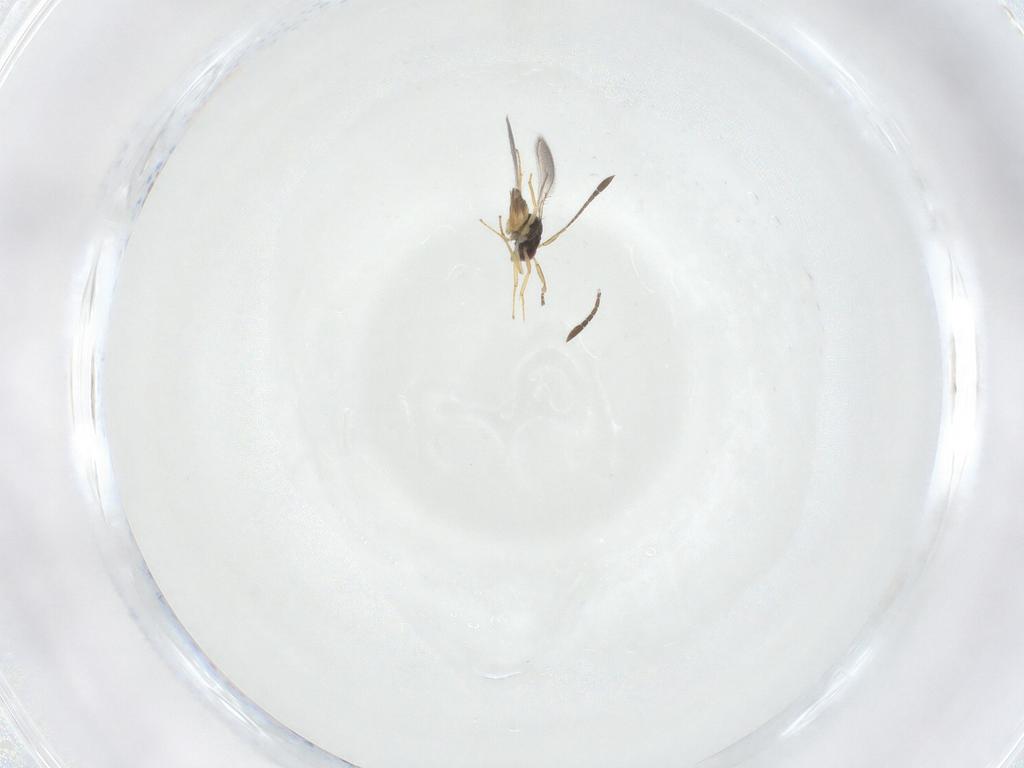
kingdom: Animalia
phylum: Arthropoda
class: Insecta
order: Hymenoptera
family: Mymaridae
